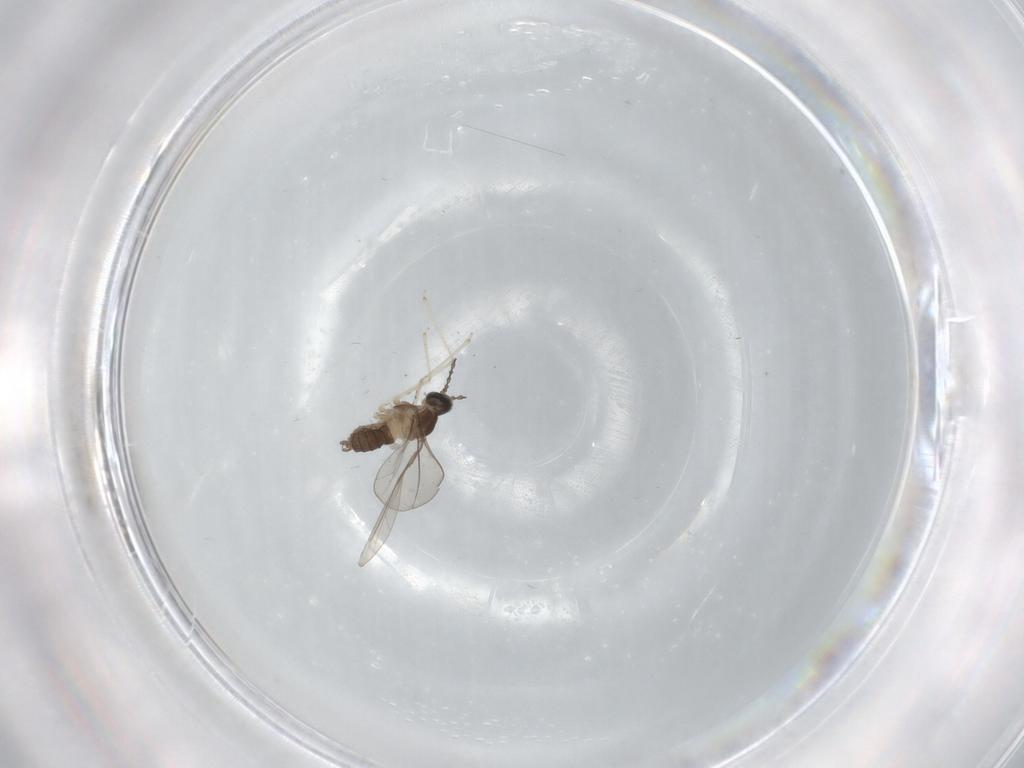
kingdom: Animalia
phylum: Arthropoda
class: Insecta
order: Diptera
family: Cecidomyiidae
